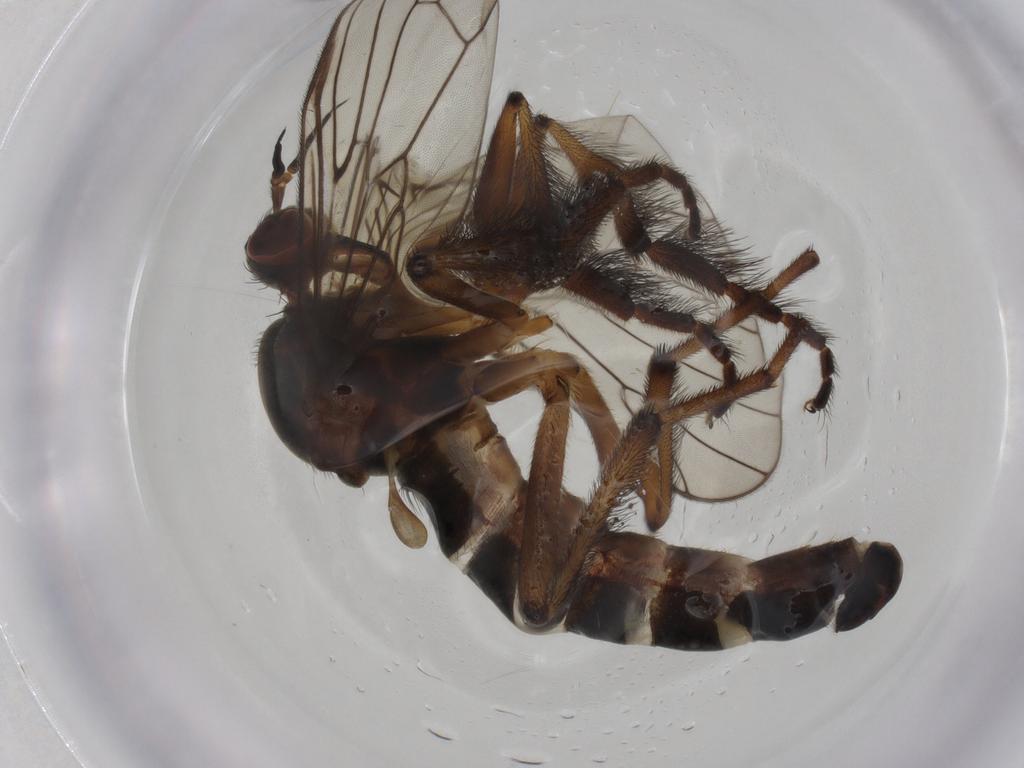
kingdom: Animalia
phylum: Arthropoda
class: Insecta
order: Diptera
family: Empididae
